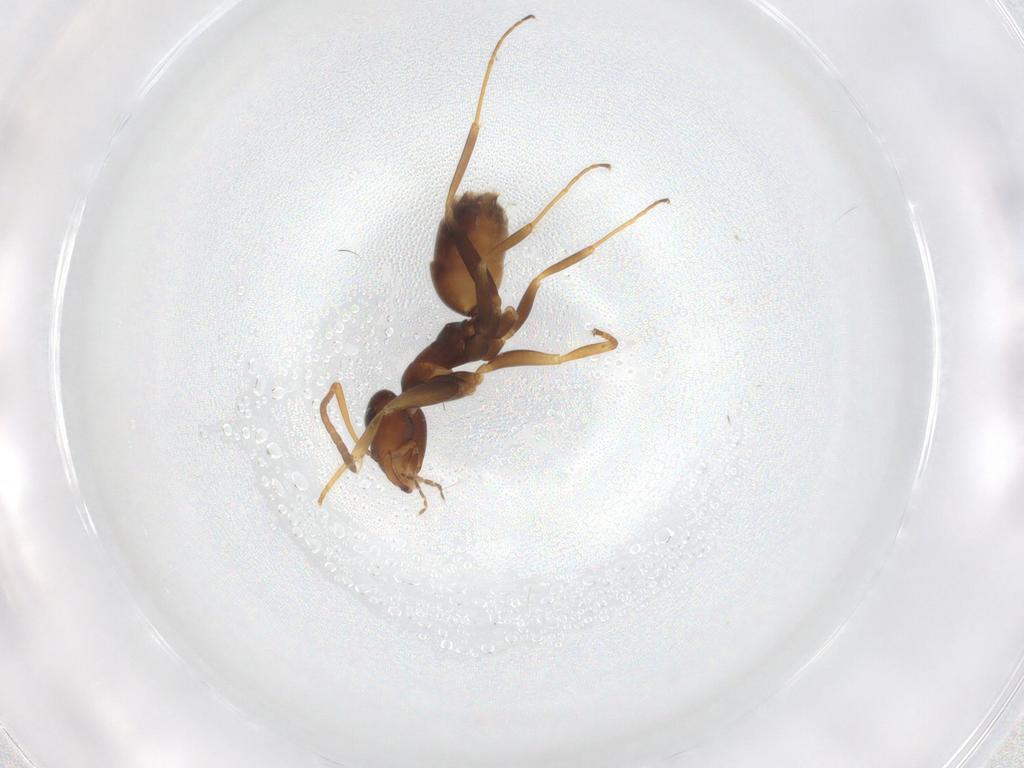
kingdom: Animalia
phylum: Arthropoda
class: Insecta
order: Hymenoptera
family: Formicidae
